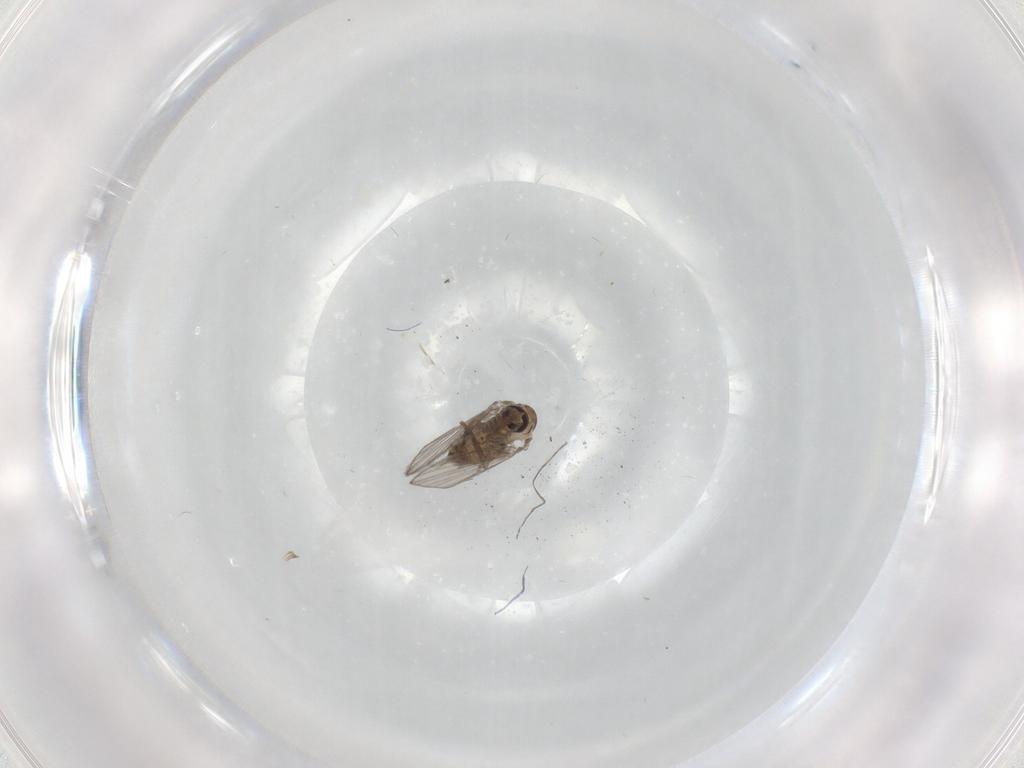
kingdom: Animalia
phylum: Arthropoda
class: Insecta
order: Diptera
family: Psychodidae
